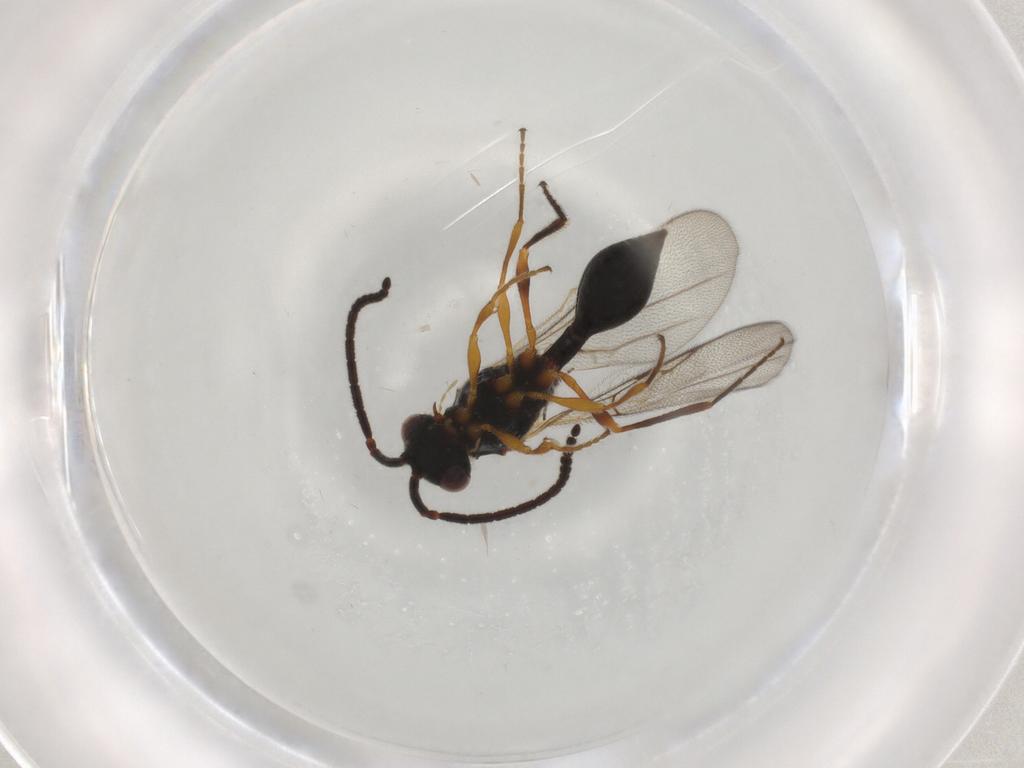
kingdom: Animalia
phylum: Arthropoda
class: Insecta
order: Hymenoptera
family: Diapriidae
